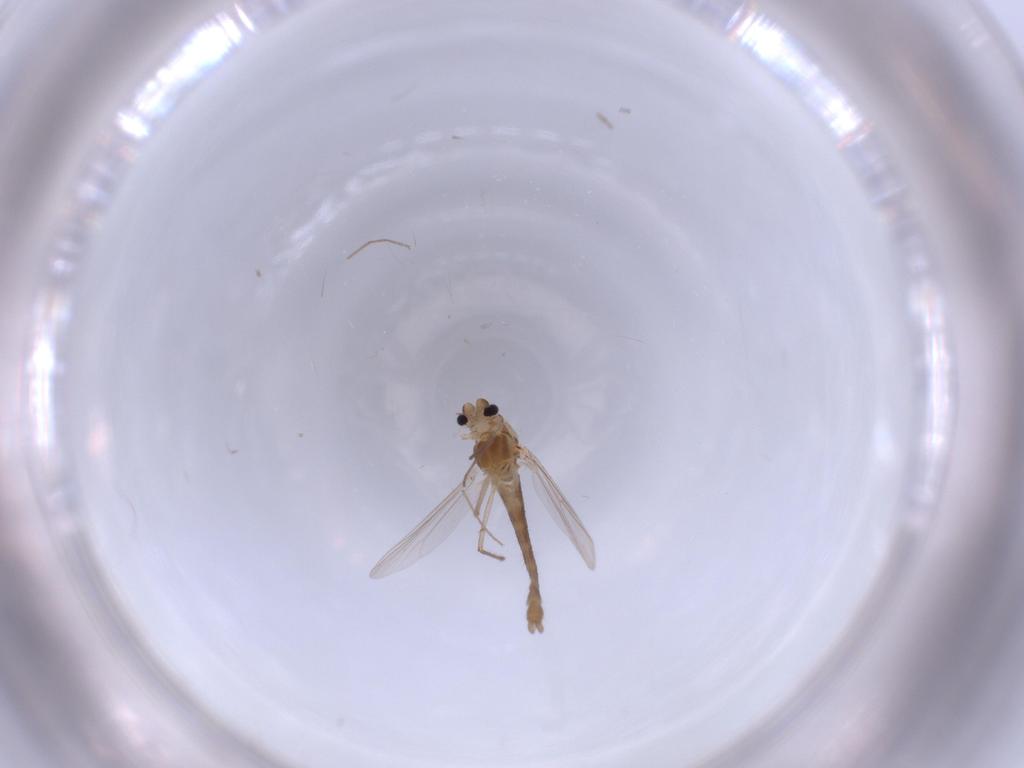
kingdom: Animalia
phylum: Arthropoda
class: Insecta
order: Diptera
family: Chironomidae
